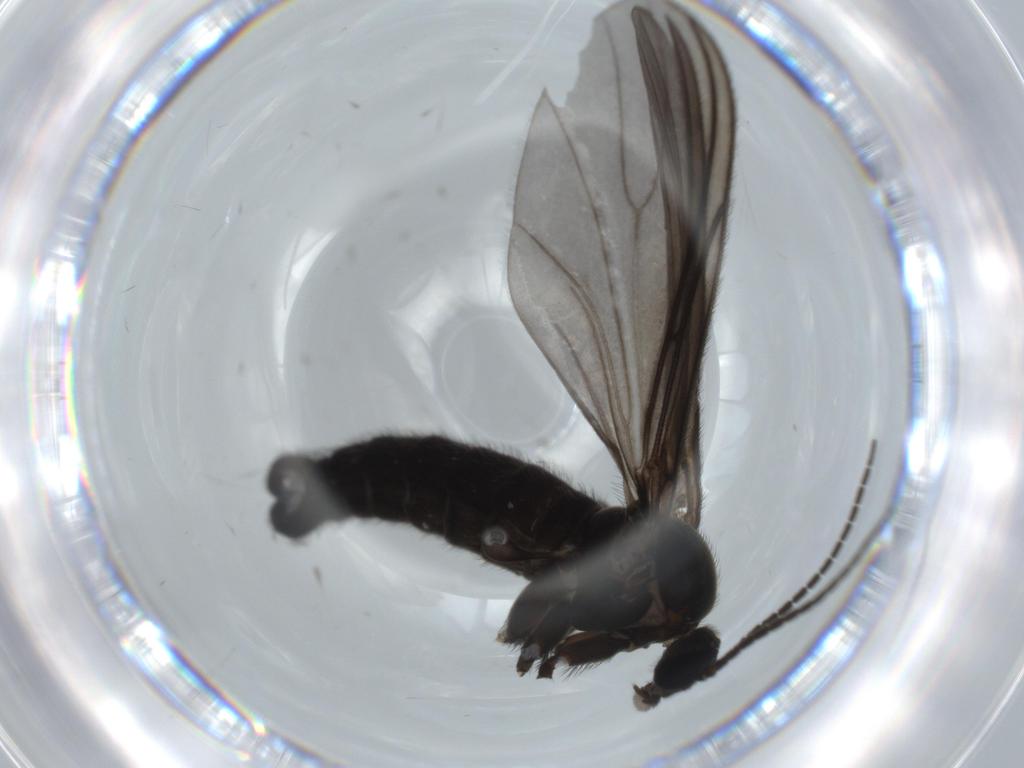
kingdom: Animalia
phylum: Arthropoda
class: Insecta
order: Diptera
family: Sciaridae
